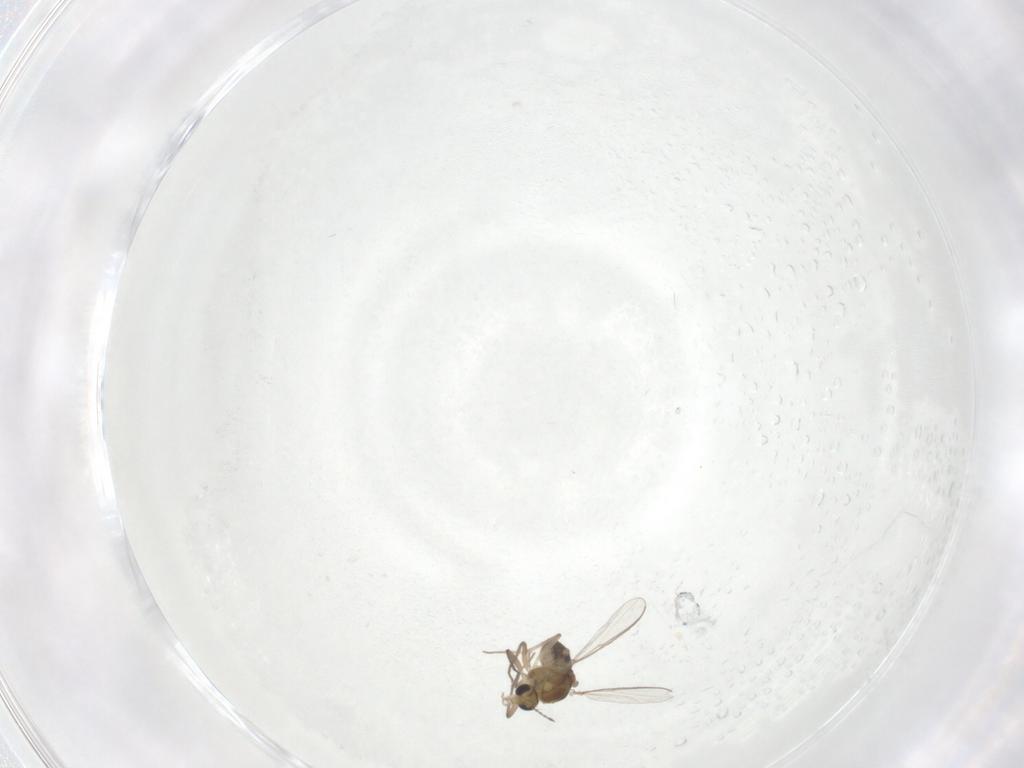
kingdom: Animalia
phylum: Arthropoda
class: Insecta
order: Diptera
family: Chironomidae
